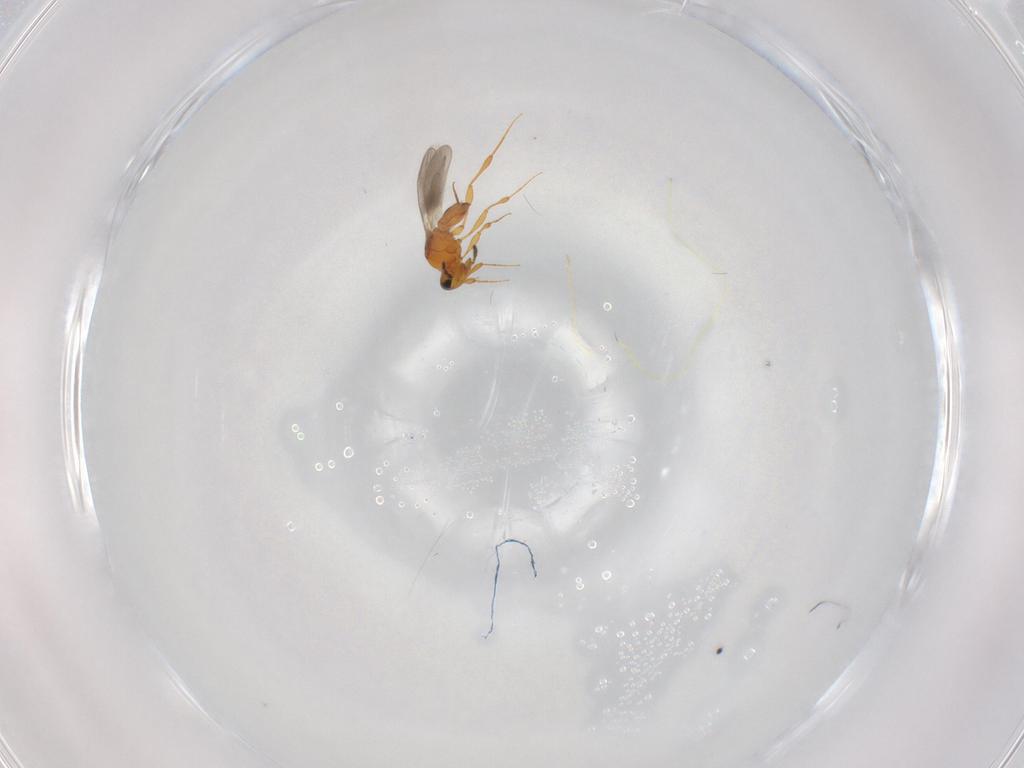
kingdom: Animalia
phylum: Arthropoda
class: Insecta
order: Hymenoptera
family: Platygastridae
